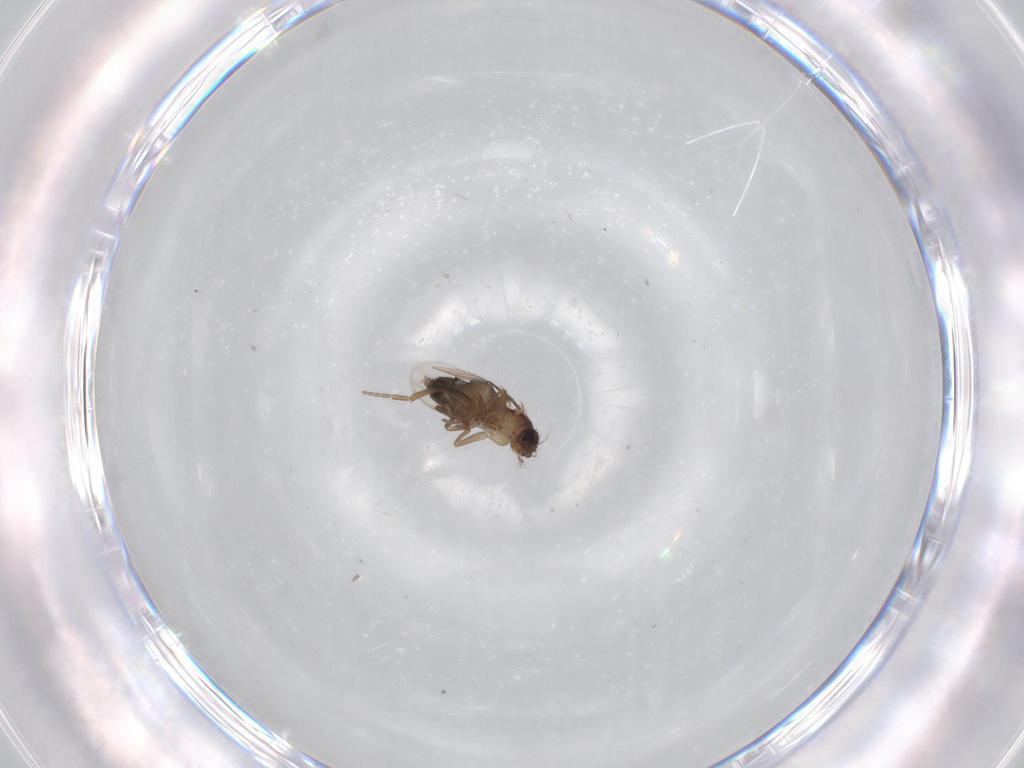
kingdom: Animalia
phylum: Arthropoda
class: Insecta
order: Diptera
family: Phoridae
